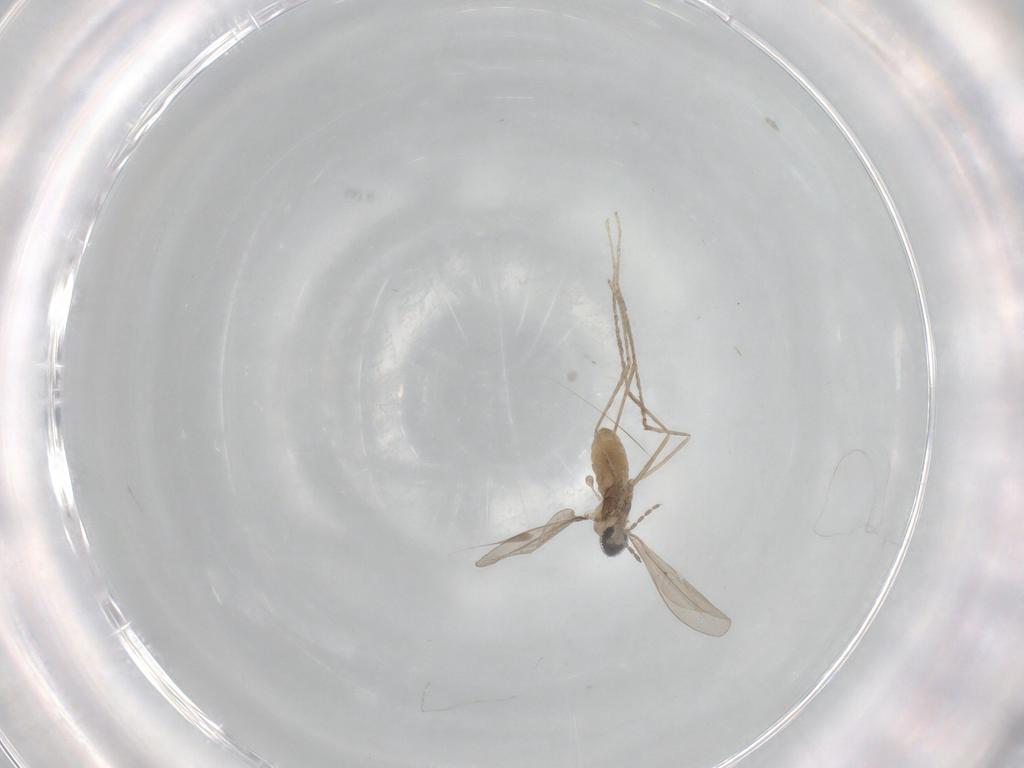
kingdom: Animalia
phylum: Arthropoda
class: Insecta
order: Diptera
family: Cecidomyiidae
